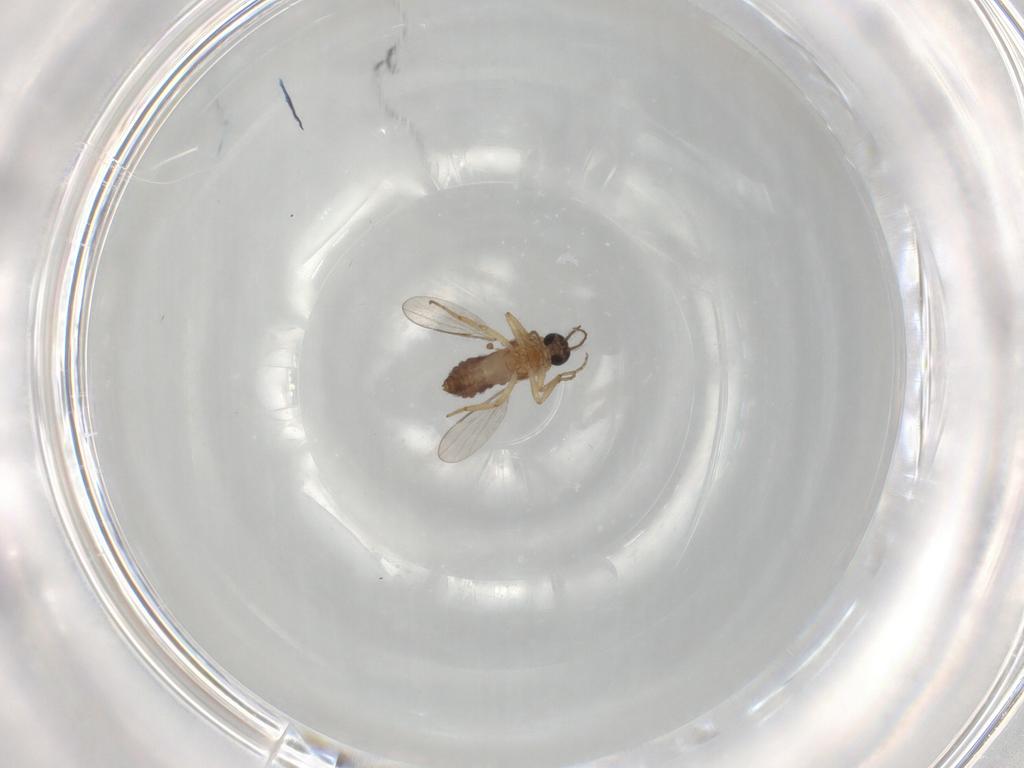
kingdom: Animalia
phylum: Arthropoda
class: Insecta
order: Diptera
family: Ceratopogonidae
